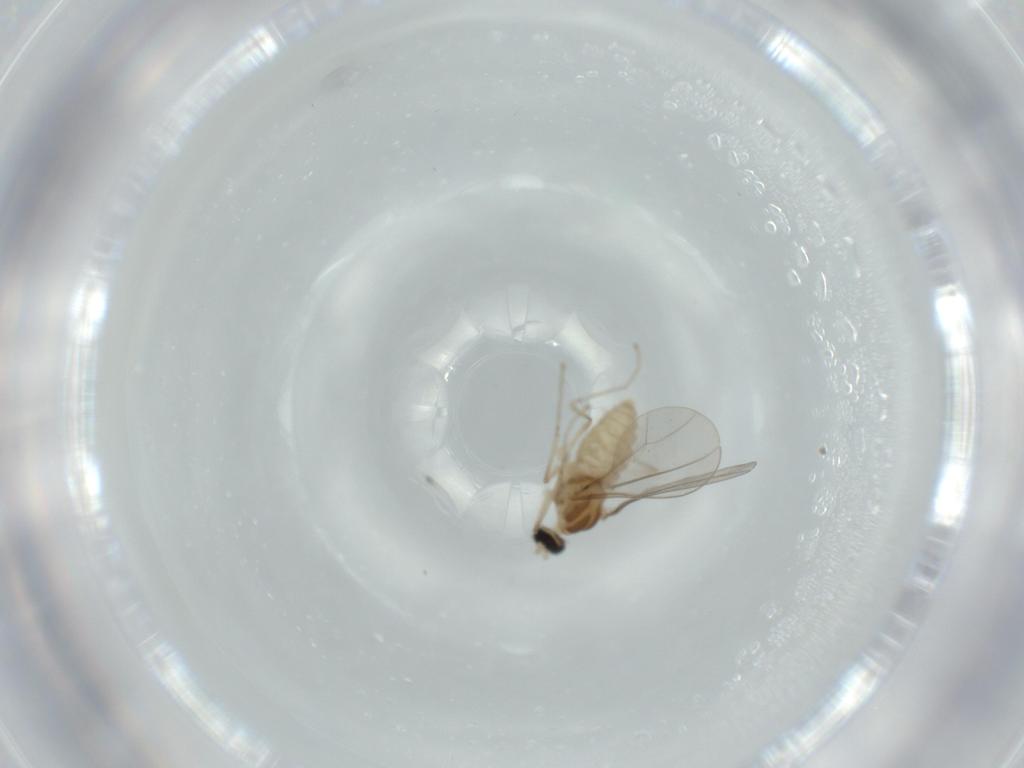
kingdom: Animalia
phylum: Arthropoda
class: Insecta
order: Diptera
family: Cecidomyiidae
